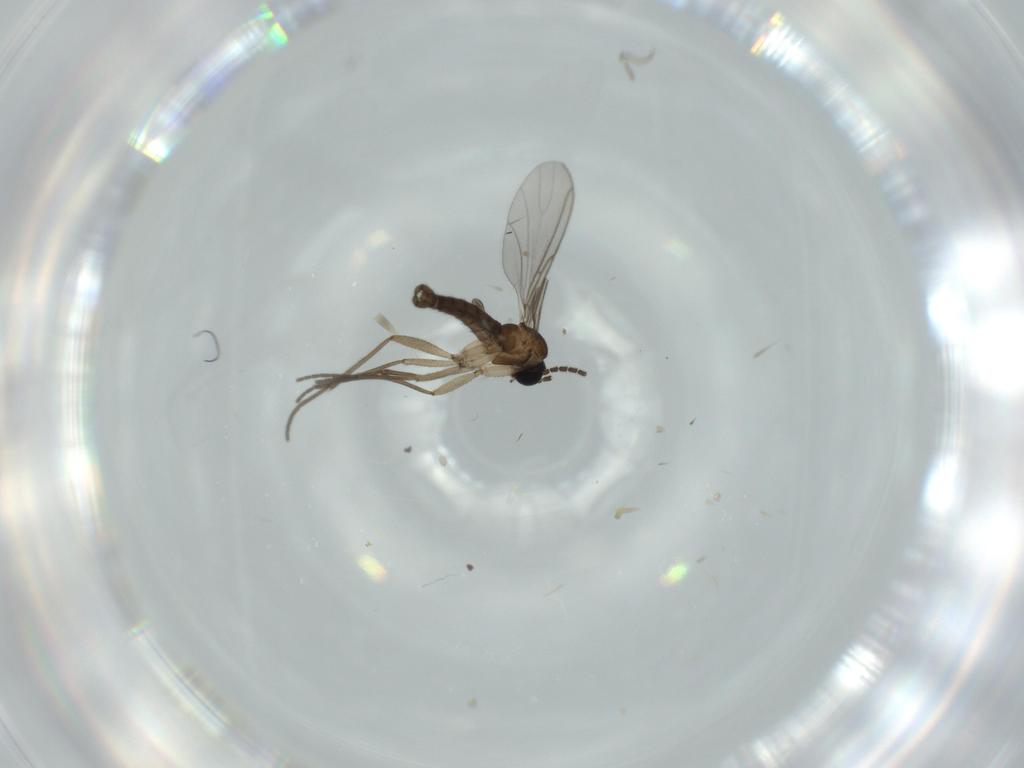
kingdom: Animalia
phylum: Arthropoda
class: Insecta
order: Diptera
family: Sciaridae
